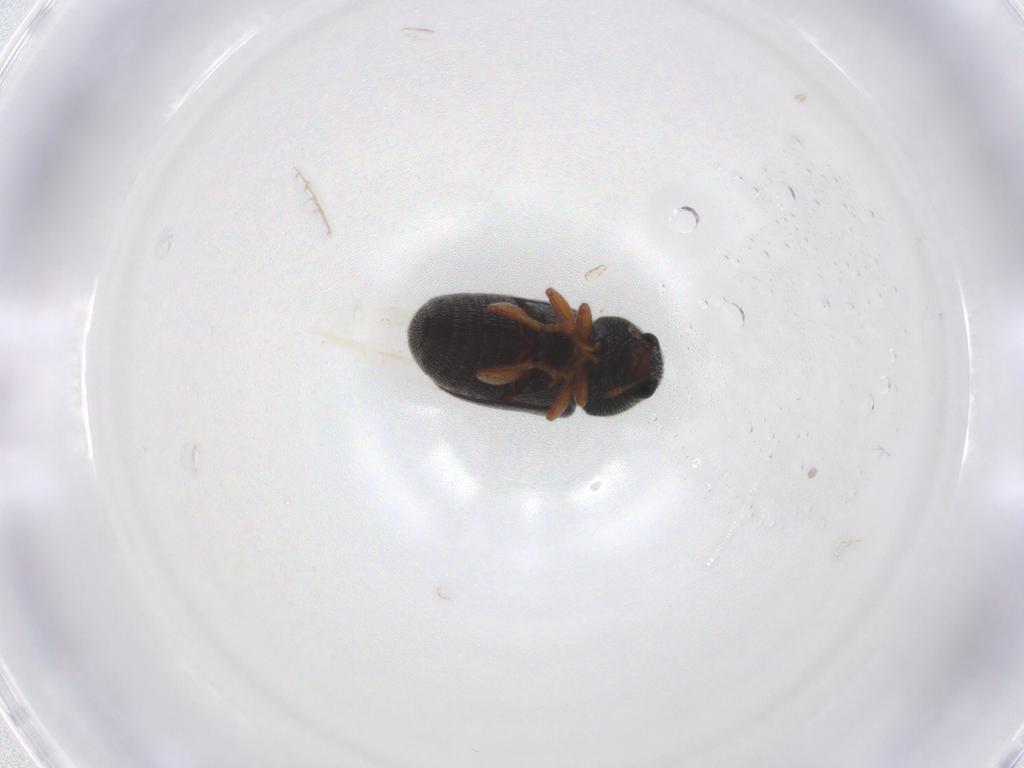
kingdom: Animalia
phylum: Arthropoda
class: Insecta
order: Coleoptera
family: Anthribidae
